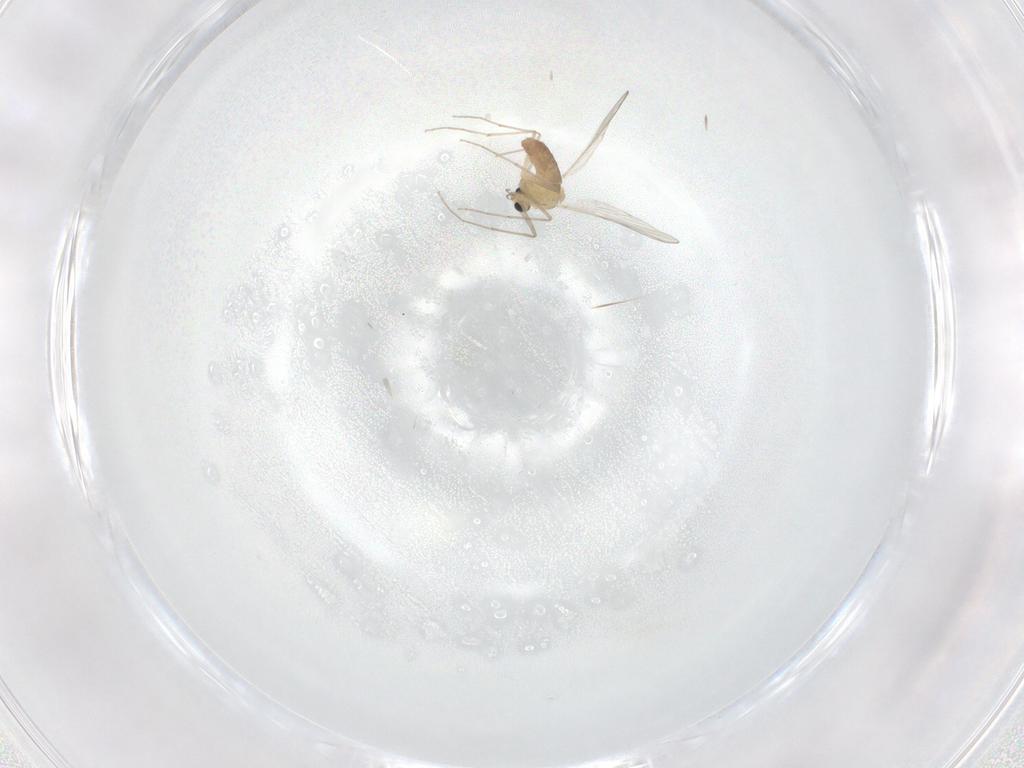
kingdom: Animalia
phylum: Arthropoda
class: Insecta
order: Diptera
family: Chironomidae
